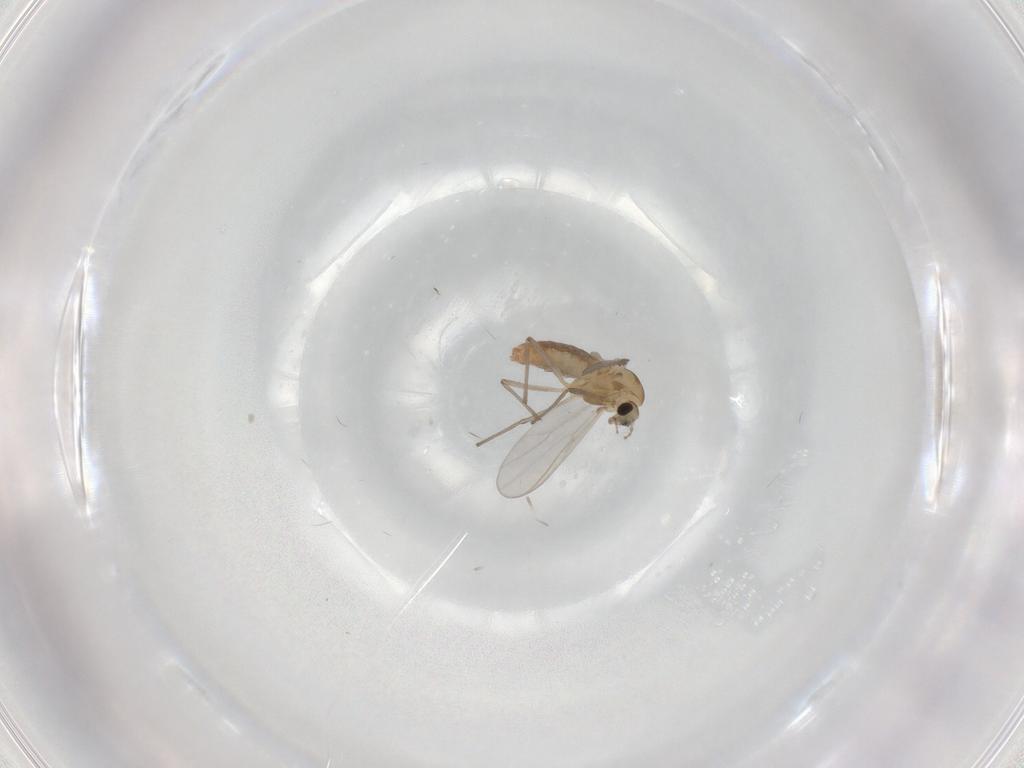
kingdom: Animalia
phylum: Arthropoda
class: Insecta
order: Diptera
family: Chironomidae
